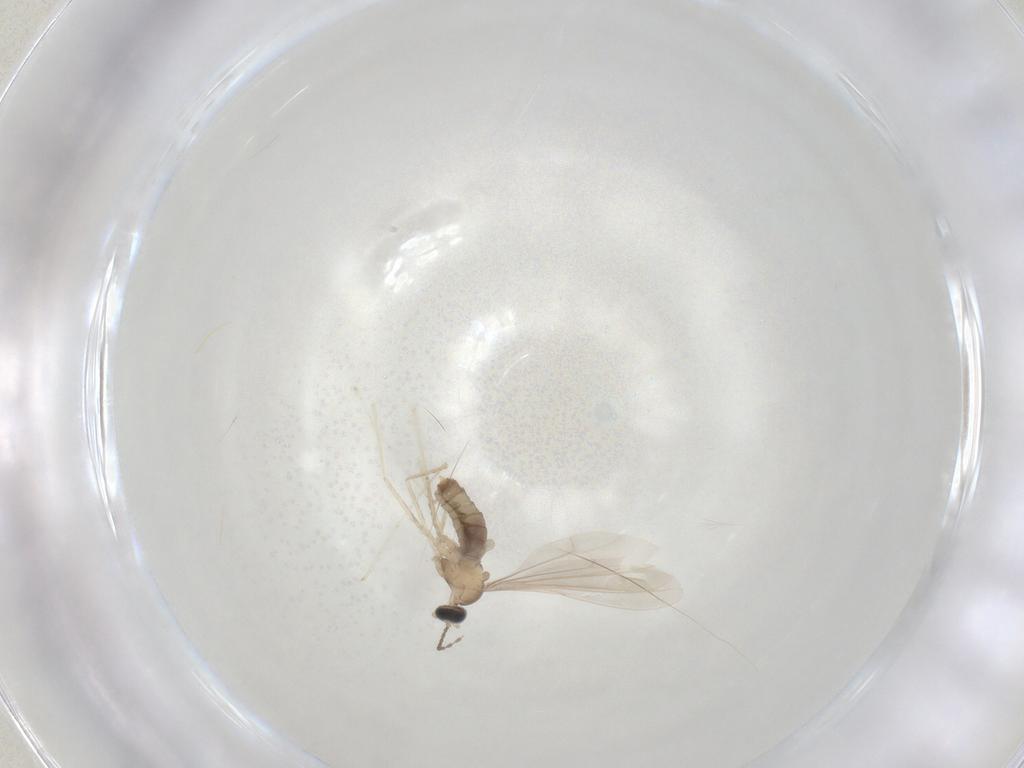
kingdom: Animalia
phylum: Arthropoda
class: Insecta
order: Diptera
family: Cecidomyiidae
